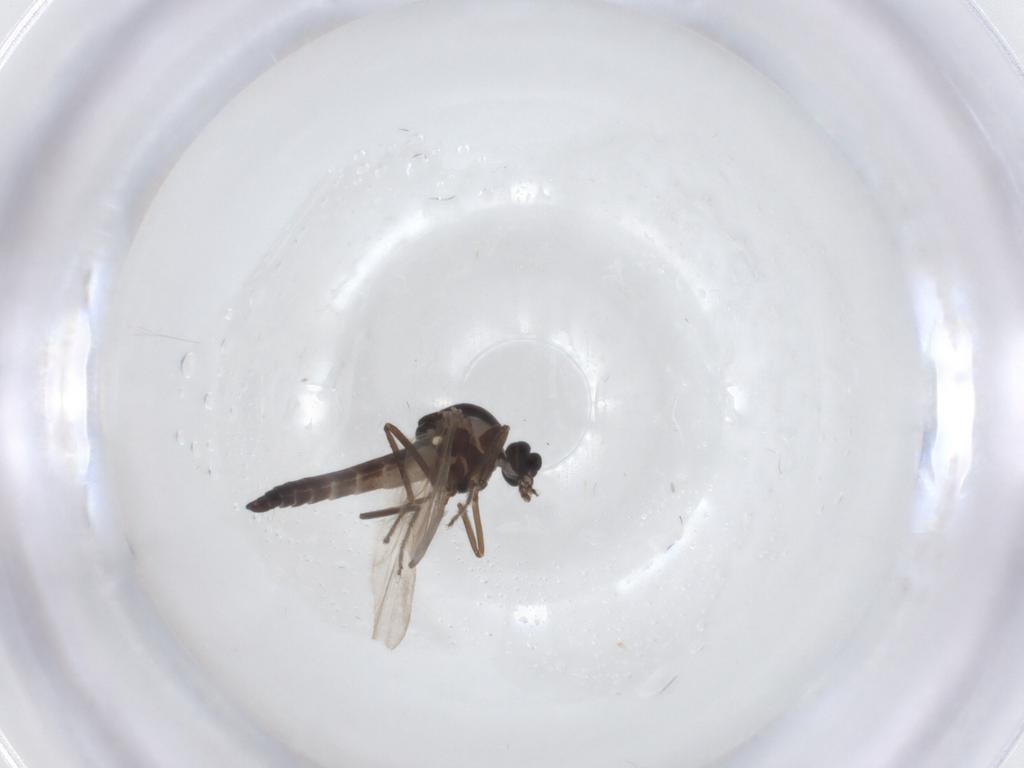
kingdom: Animalia
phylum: Arthropoda
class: Insecta
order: Diptera
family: Ceratopogonidae
